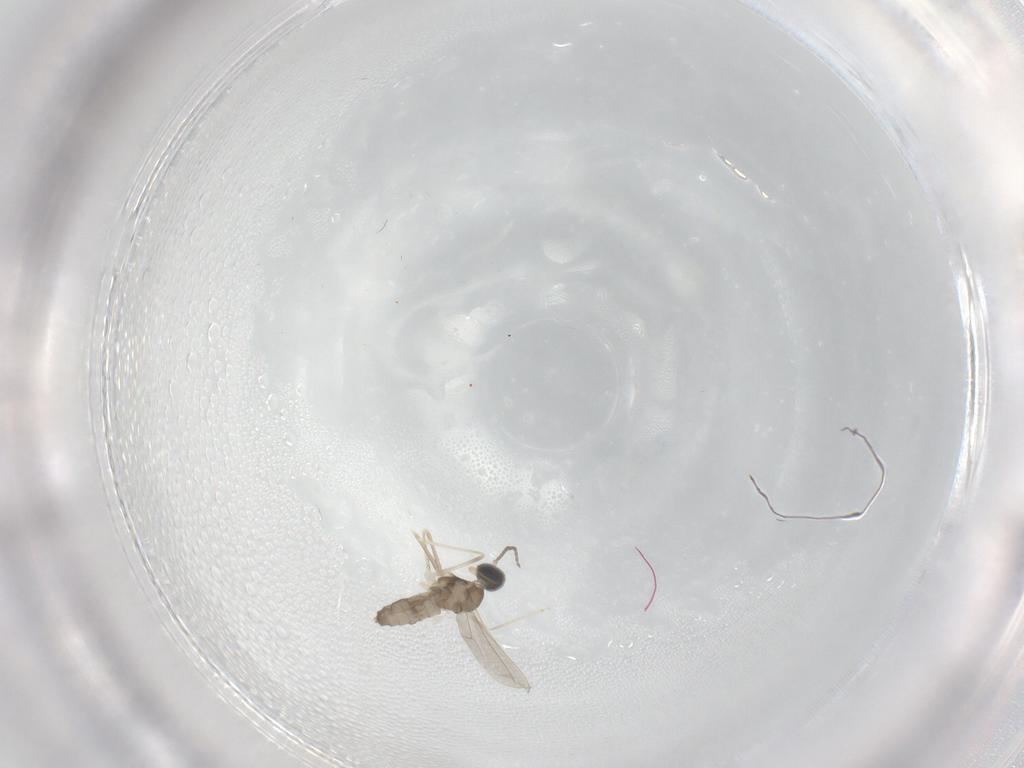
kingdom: Animalia
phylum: Arthropoda
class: Insecta
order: Diptera
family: Cecidomyiidae
